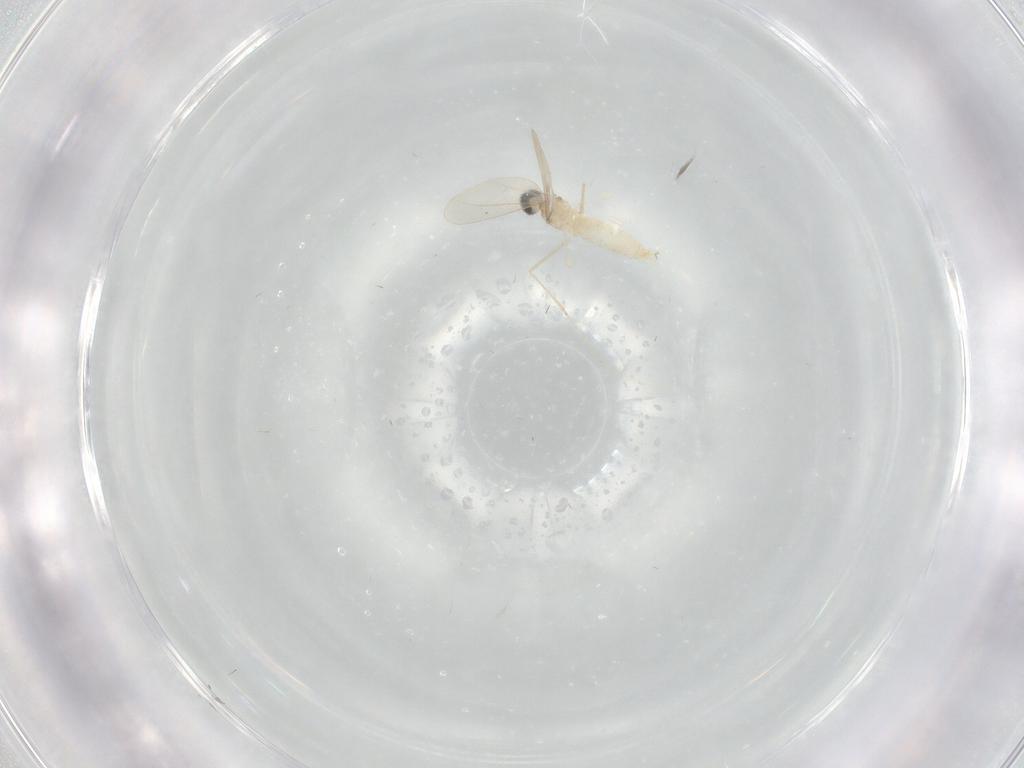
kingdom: Animalia
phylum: Arthropoda
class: Insecta
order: Diptera
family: Cecidomyiidae
